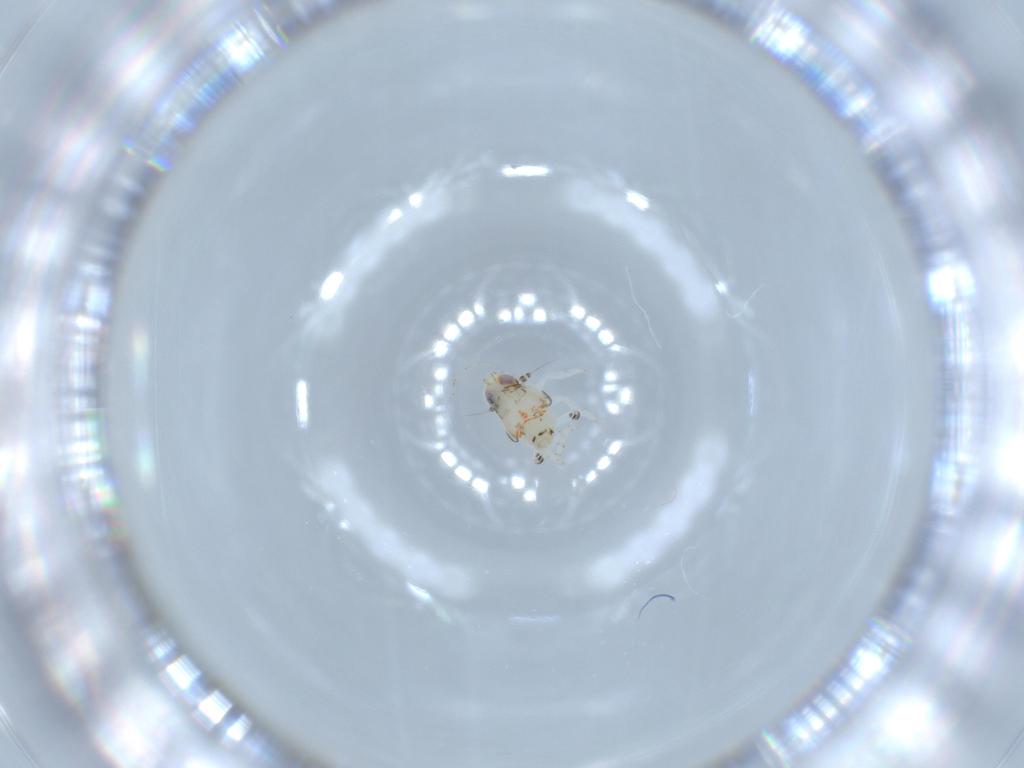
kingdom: Animalia
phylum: Arthropoda
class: Insecta
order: Hemiptera
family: Nogodinidae
